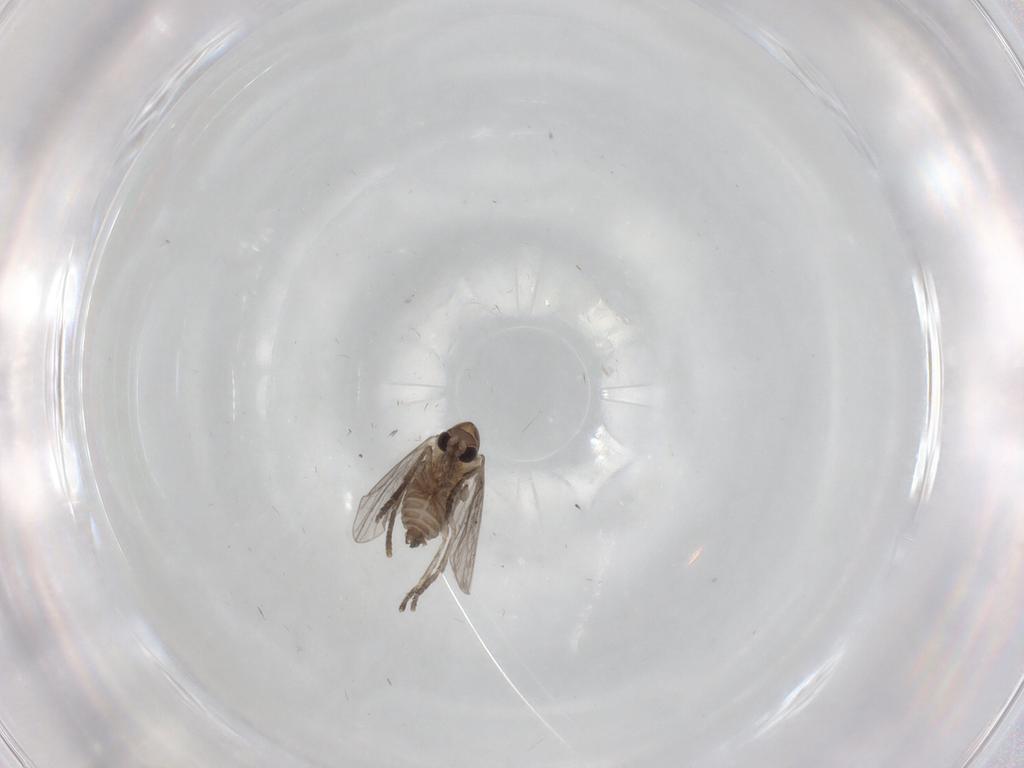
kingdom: Animalia
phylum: Arthropoda
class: Insecta
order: Diptera
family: Sciaridae
